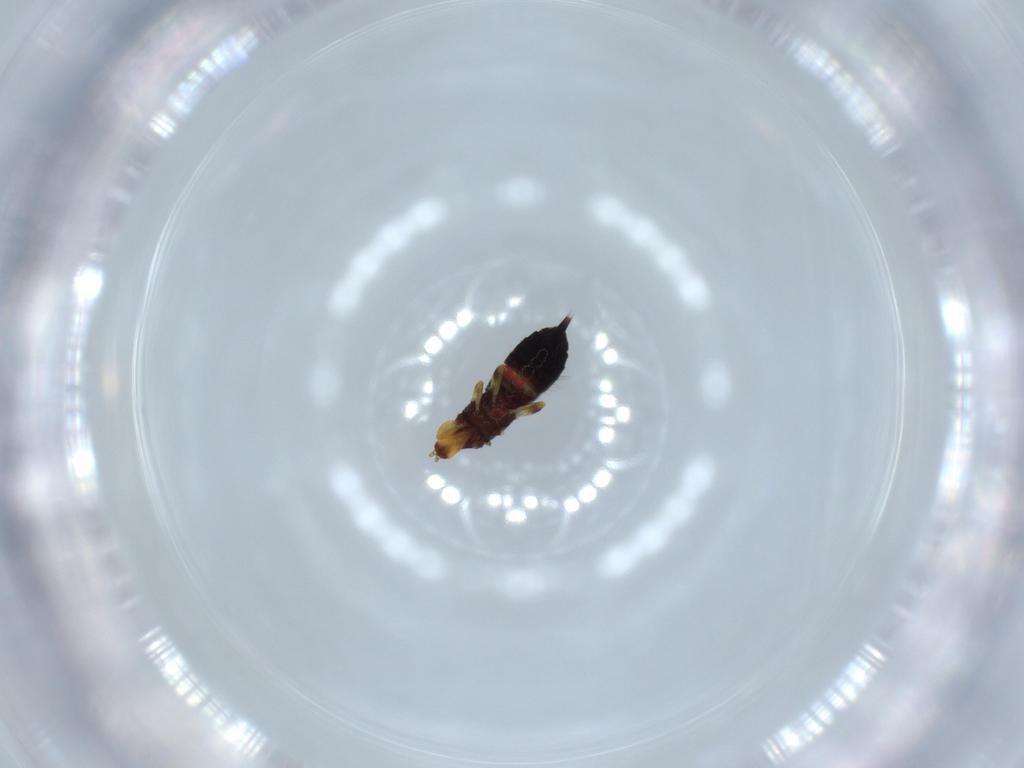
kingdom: Animalia
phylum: Arthropoda
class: Insecta
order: Thysanoptera
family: Phlaeothripidae
